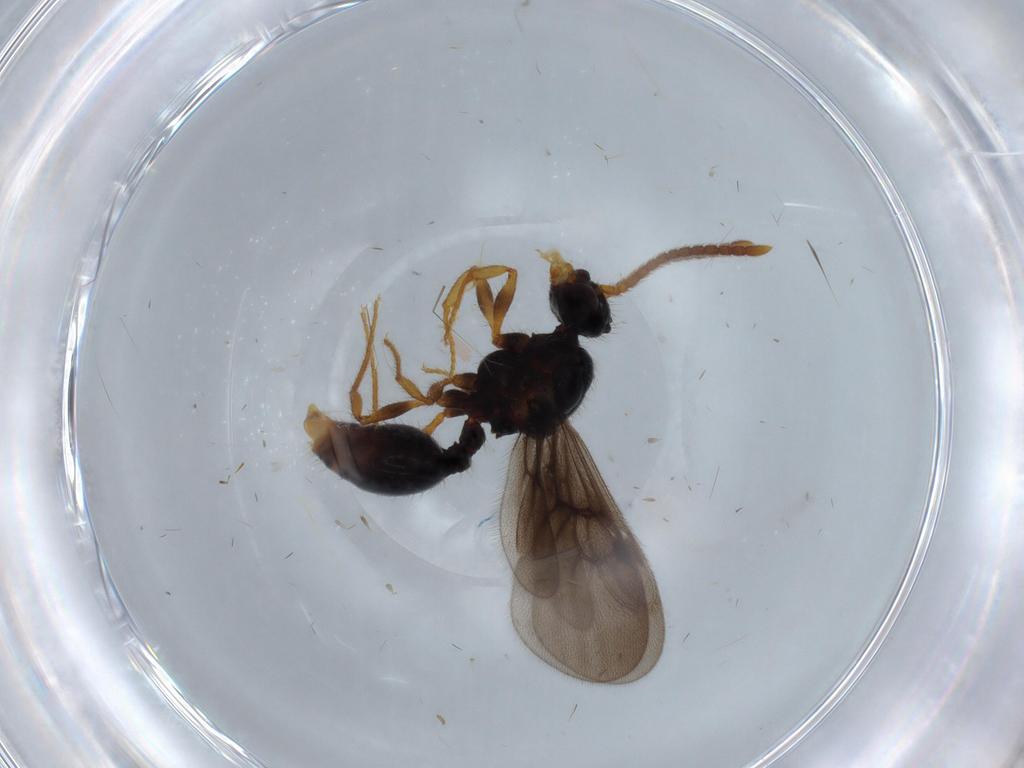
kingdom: Animalia
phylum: Arthropoda
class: Insecta
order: Hymenoptera
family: Formicidae
